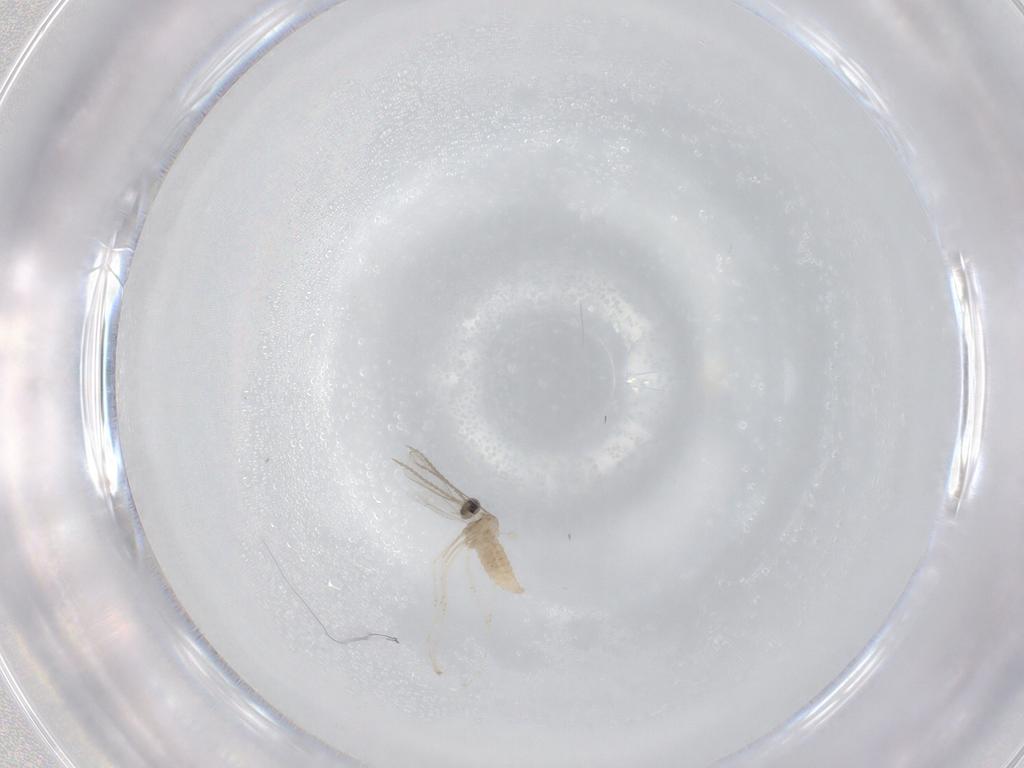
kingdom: Animalia
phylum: Arthropoda
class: Insecta
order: Diptera
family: Cecidomyiidae
